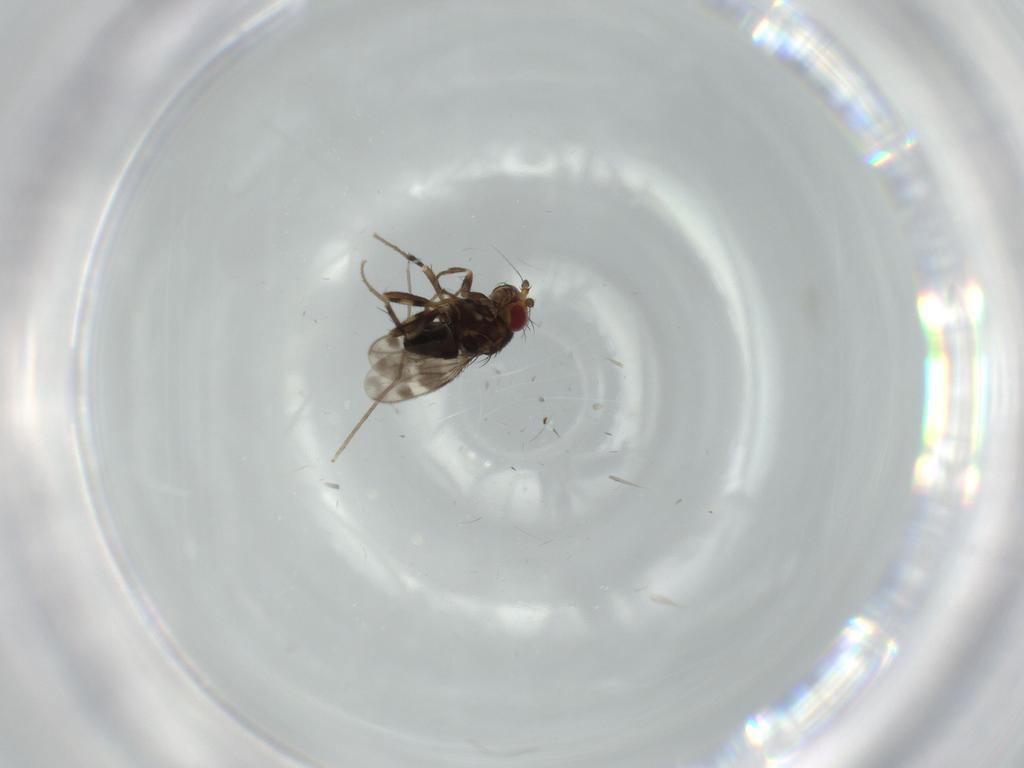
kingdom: Animalia
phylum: Arthropoda
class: Insecta
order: Diptera
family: Sphaeroceridae
